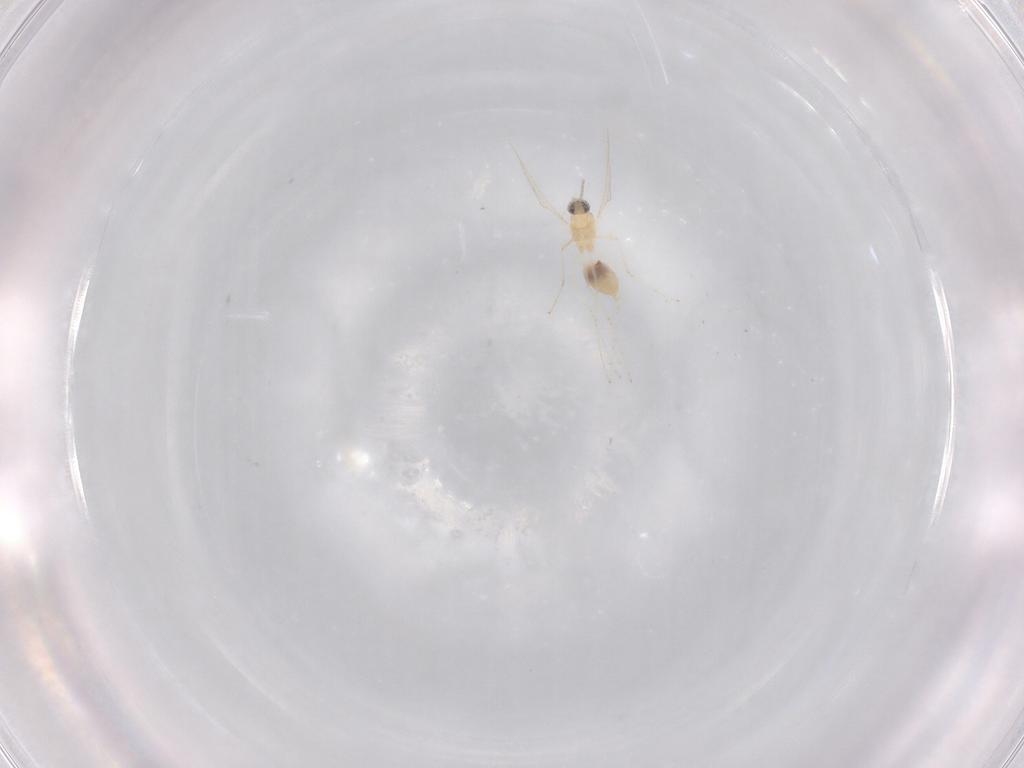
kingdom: Animalia
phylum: Arthropoda
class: Insecta
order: Diptera
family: Cecidomyiidae
